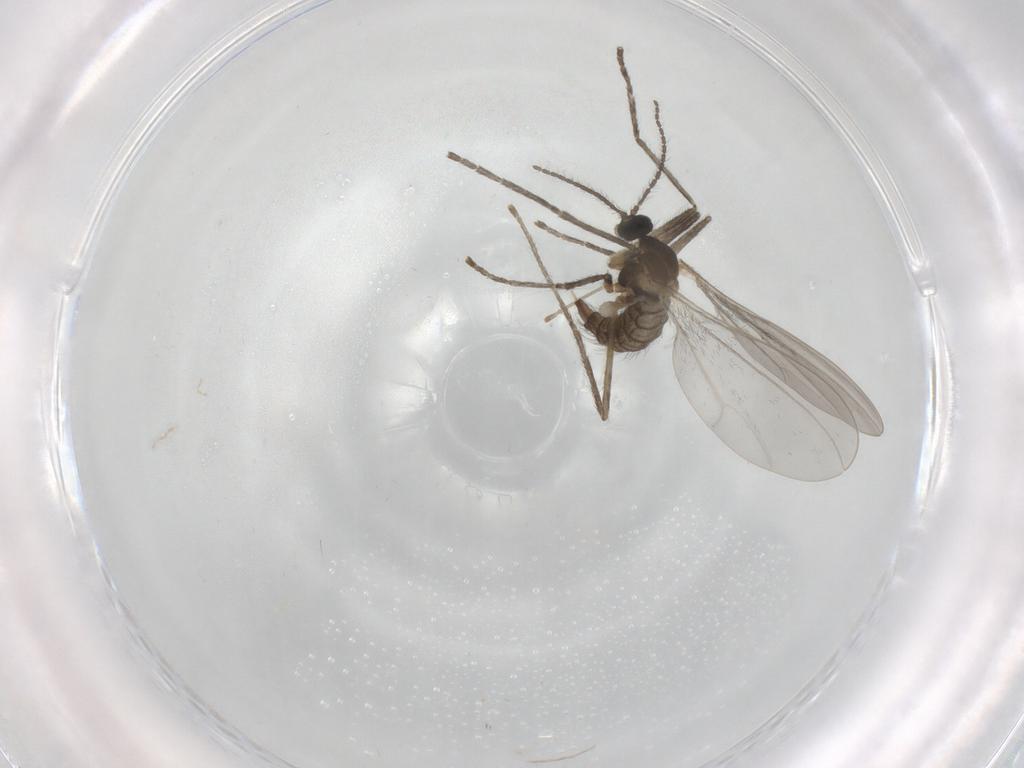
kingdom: Animalia
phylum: Arthropoda
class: Insecta
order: Diptera
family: Cecidomyiidae
